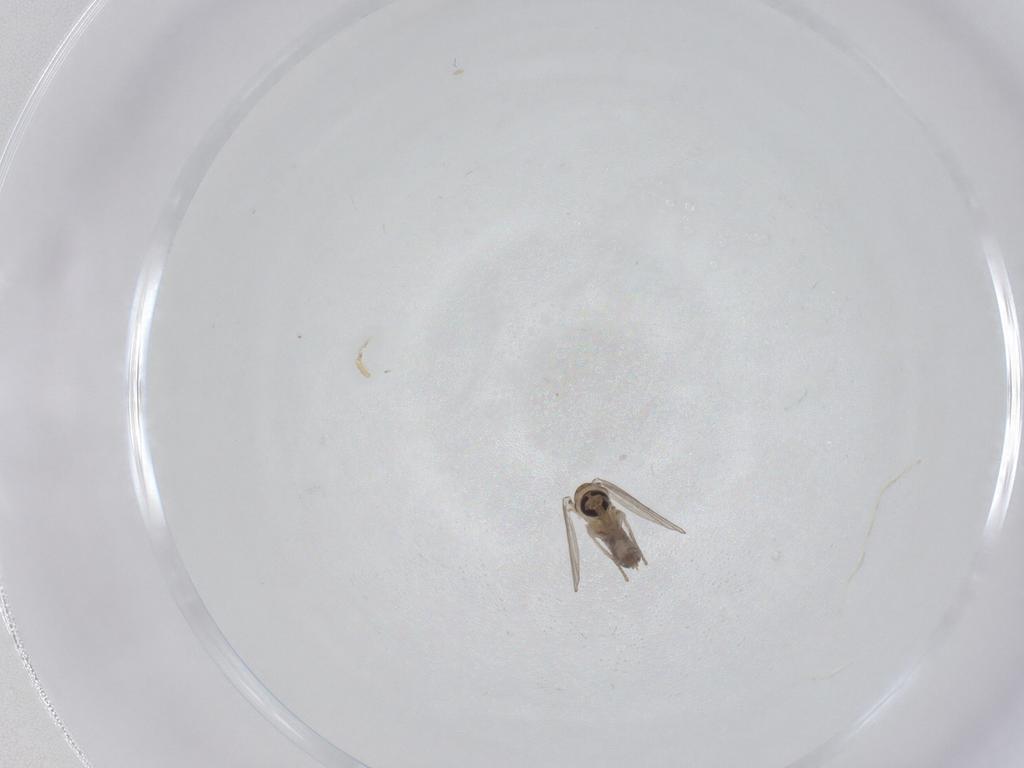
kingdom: Animalia
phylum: Arthropoda
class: Insecta
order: Diptera
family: Psychodidae
